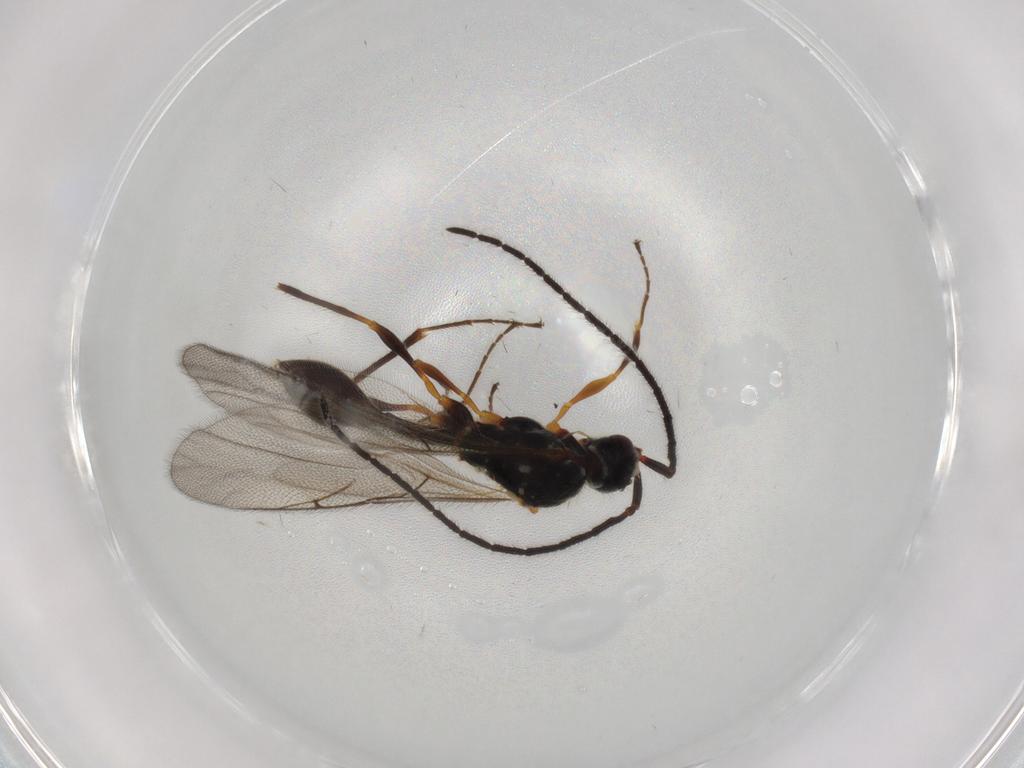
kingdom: Animalia
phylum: Arthropoda
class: Insecta
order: Hymenoptera
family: Diapriidae
